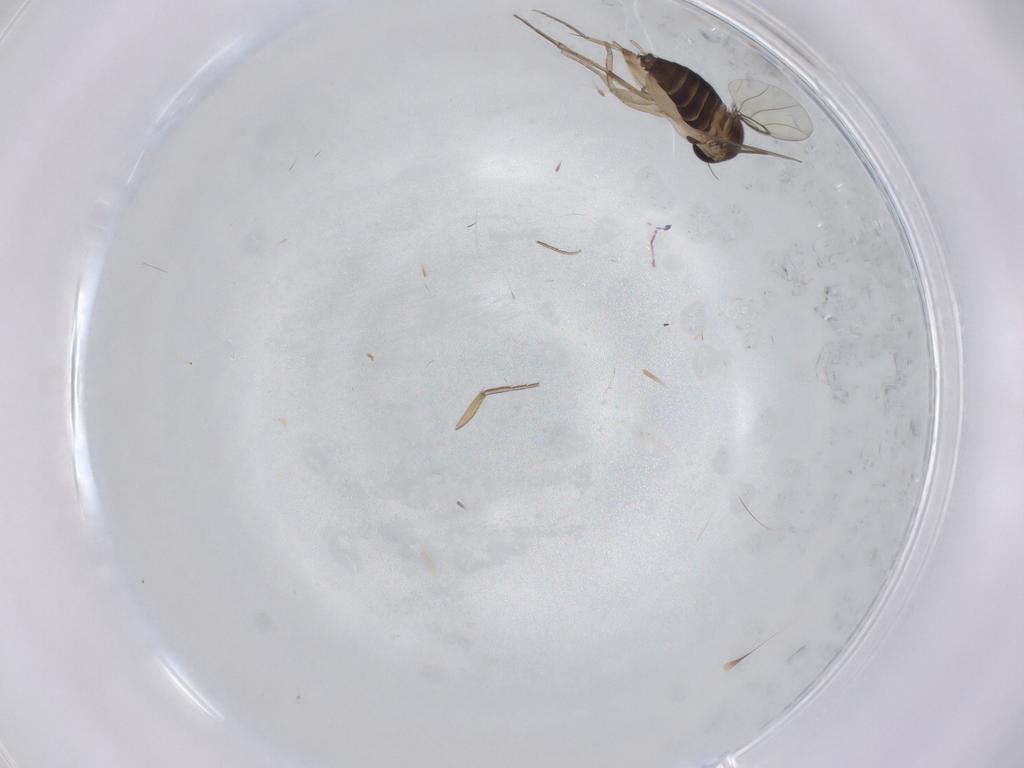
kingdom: Animalia
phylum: Arthropoda
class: Insecta
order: Diptera
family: Phoridae
